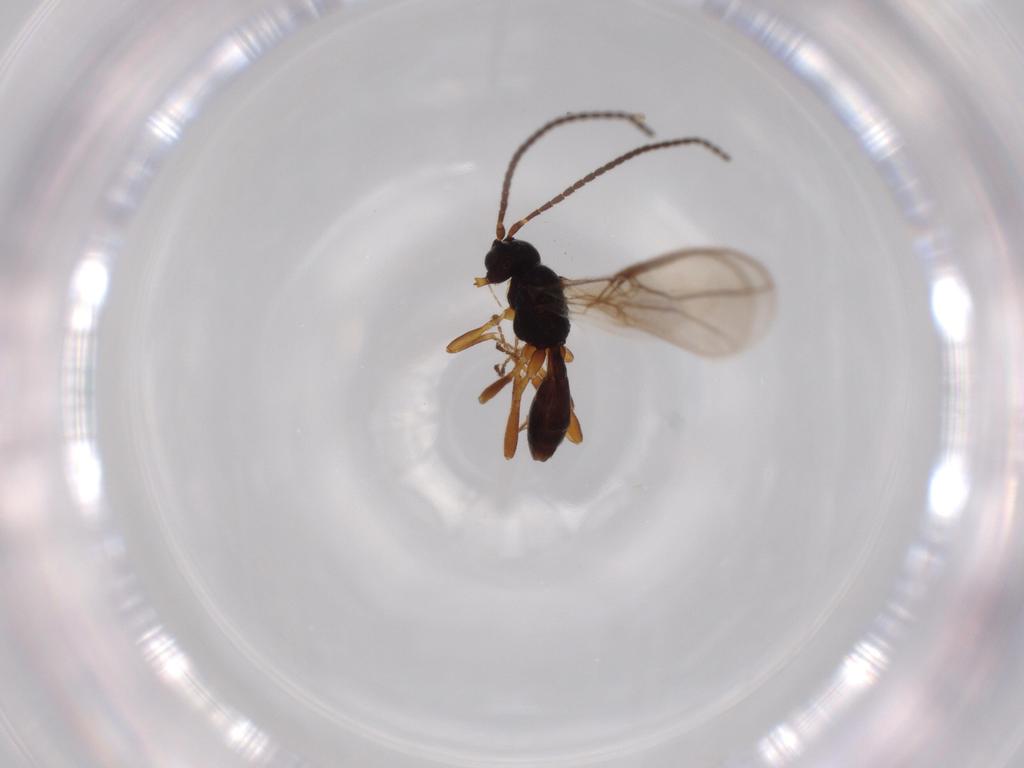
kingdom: Animalia
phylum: Arthropoda
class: Insecta
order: Hymenoptera
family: Braconidae
